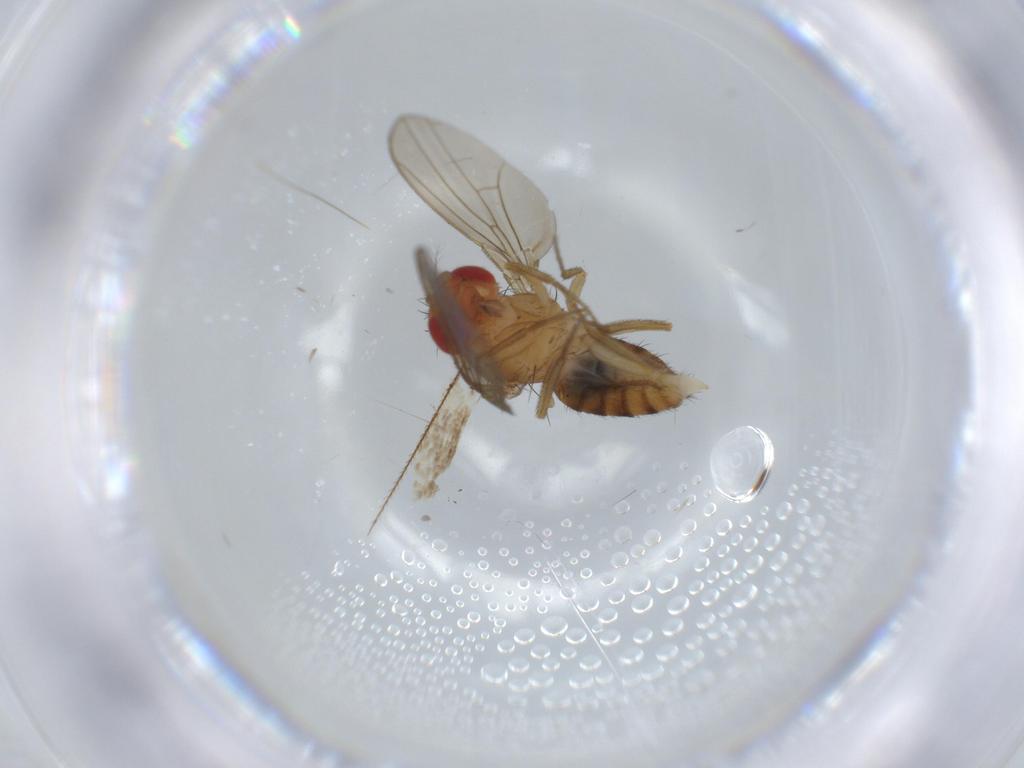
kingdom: Animalia
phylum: Arthropoda
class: Insecta
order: Diptera
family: Drosophilidae
